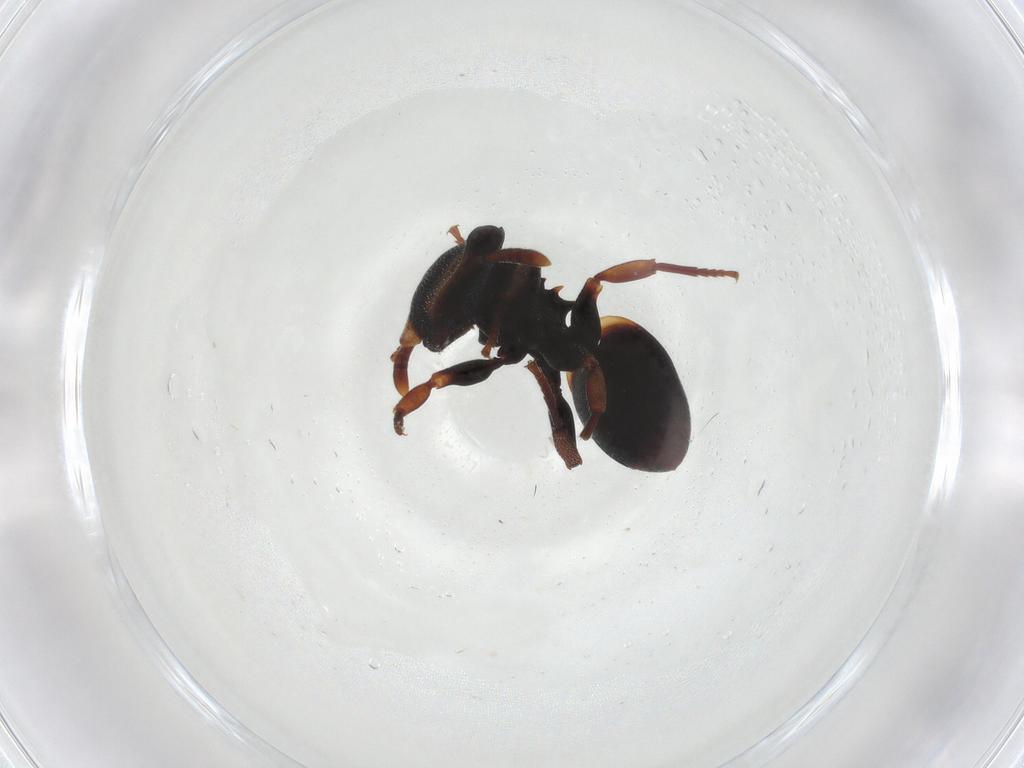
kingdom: Animalia
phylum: Arthropoda
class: Insecta
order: Hymenoptera
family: Formicidae
